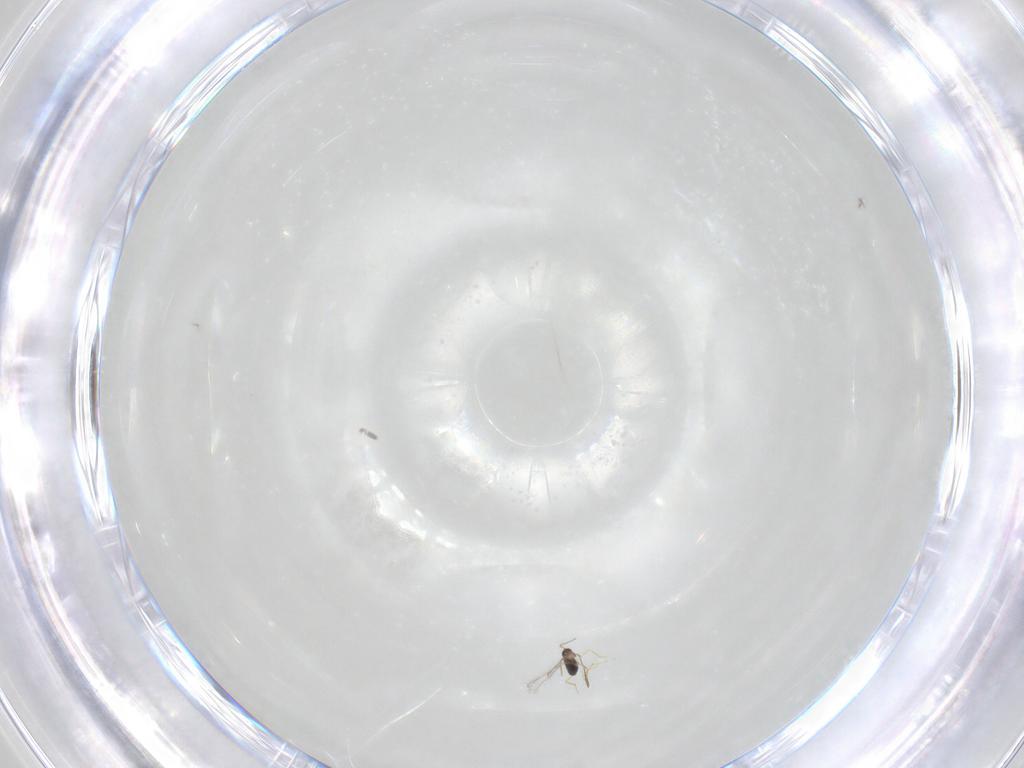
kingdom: Animalia
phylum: Arthropoda
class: Insecta
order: Hymenoptera
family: Mymaridae
